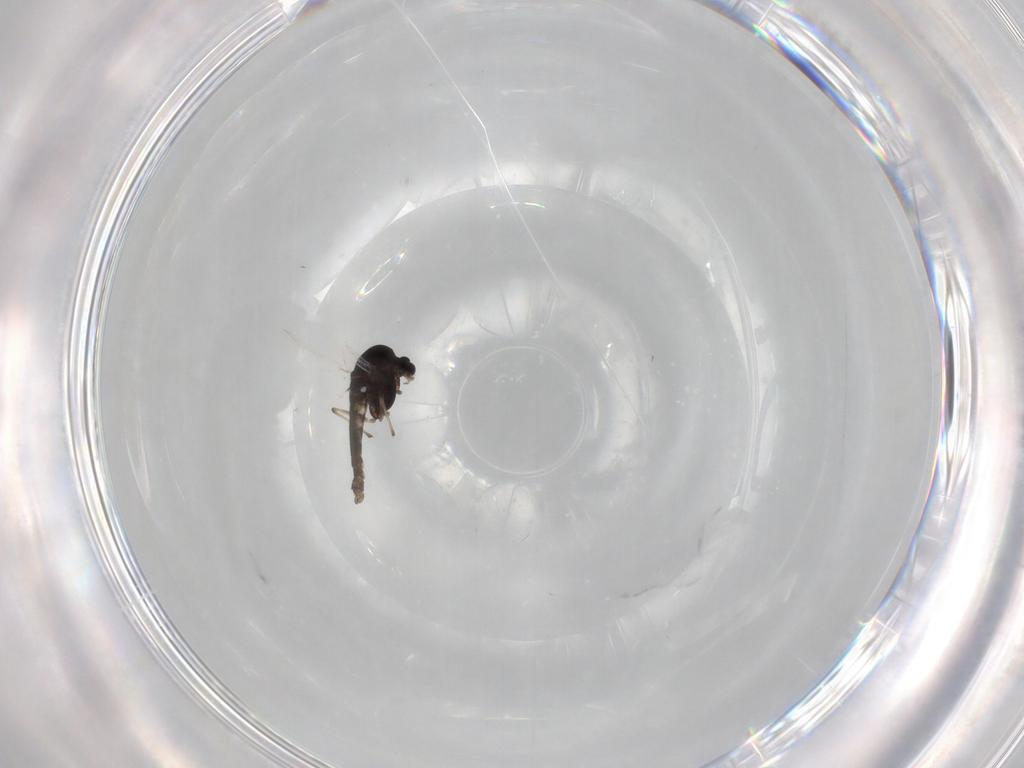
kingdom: Animalia
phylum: Arthropoda
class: Insecta
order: Diptera
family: Chironomidae
